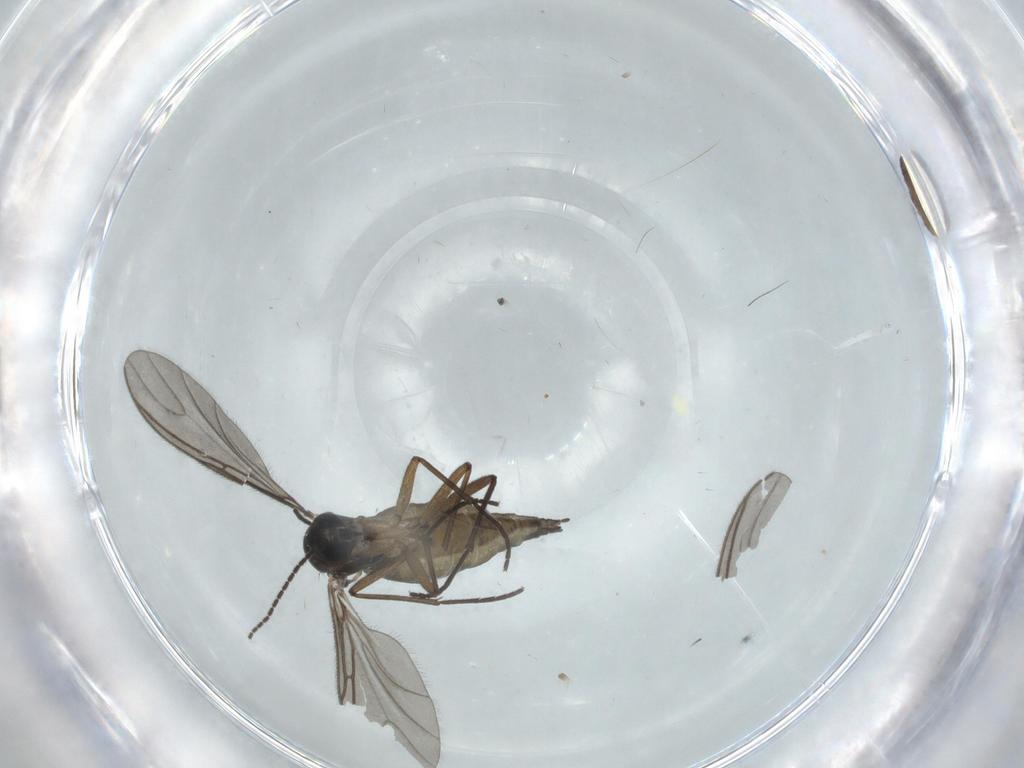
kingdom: Animalia
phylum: Arthropoda
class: Insecta
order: Diptera
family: Sciaridae
